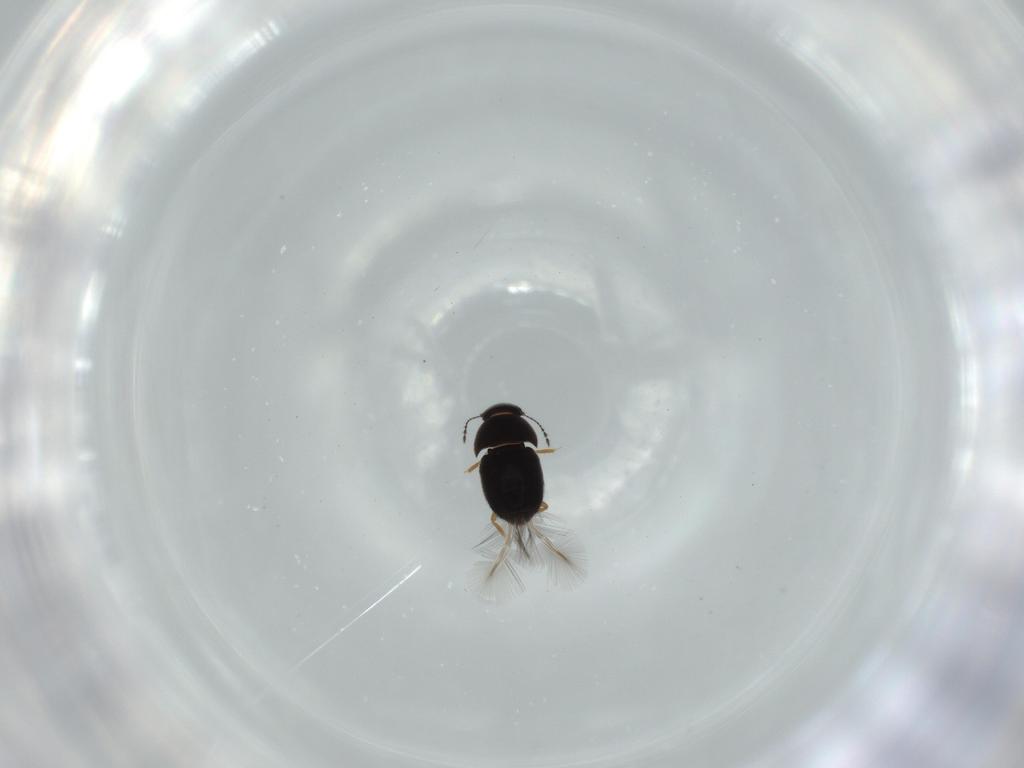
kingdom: Animalia
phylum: Arthropoda
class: Insecta
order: Coleoptera
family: Ptiliidae
